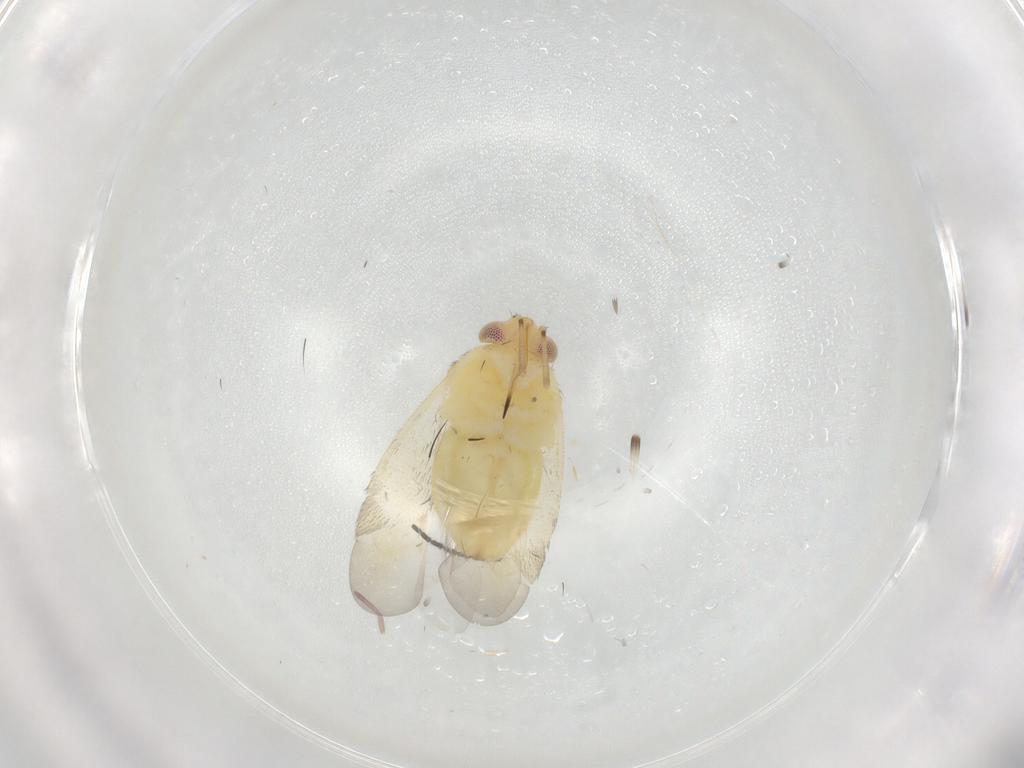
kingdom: Animalia
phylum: Arthropoda
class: Insecta
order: Hemiptera
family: Miridae
